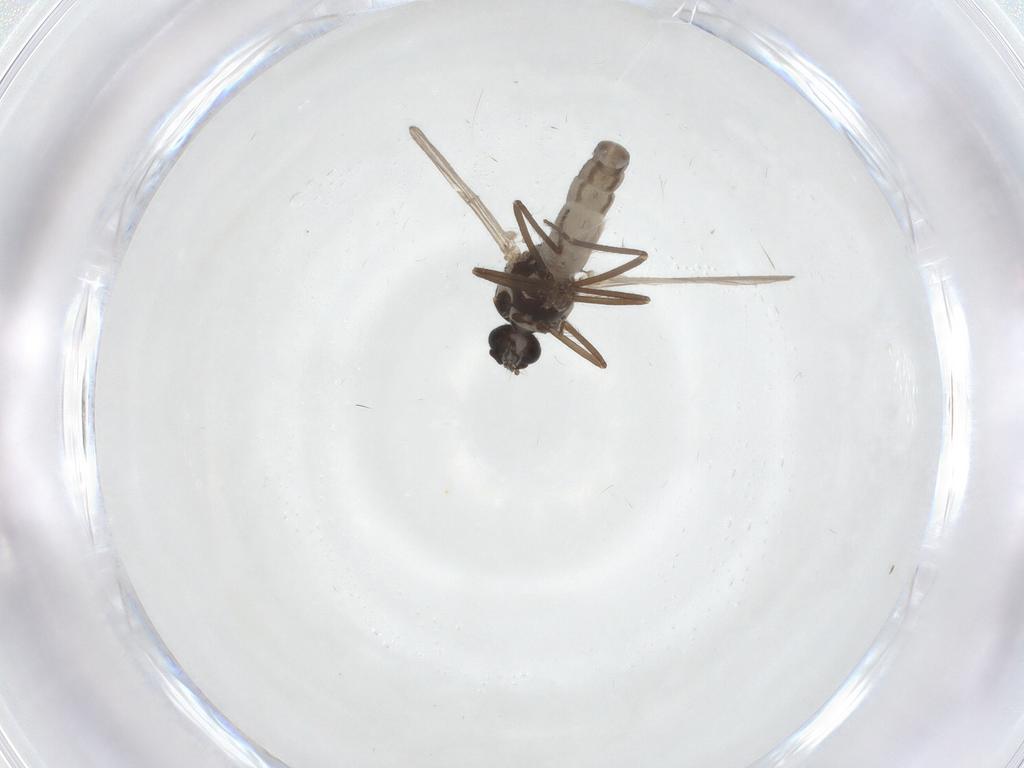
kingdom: Animalia
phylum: Arthropoda
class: Insecta
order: Diptera
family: Ceratopogonidae
